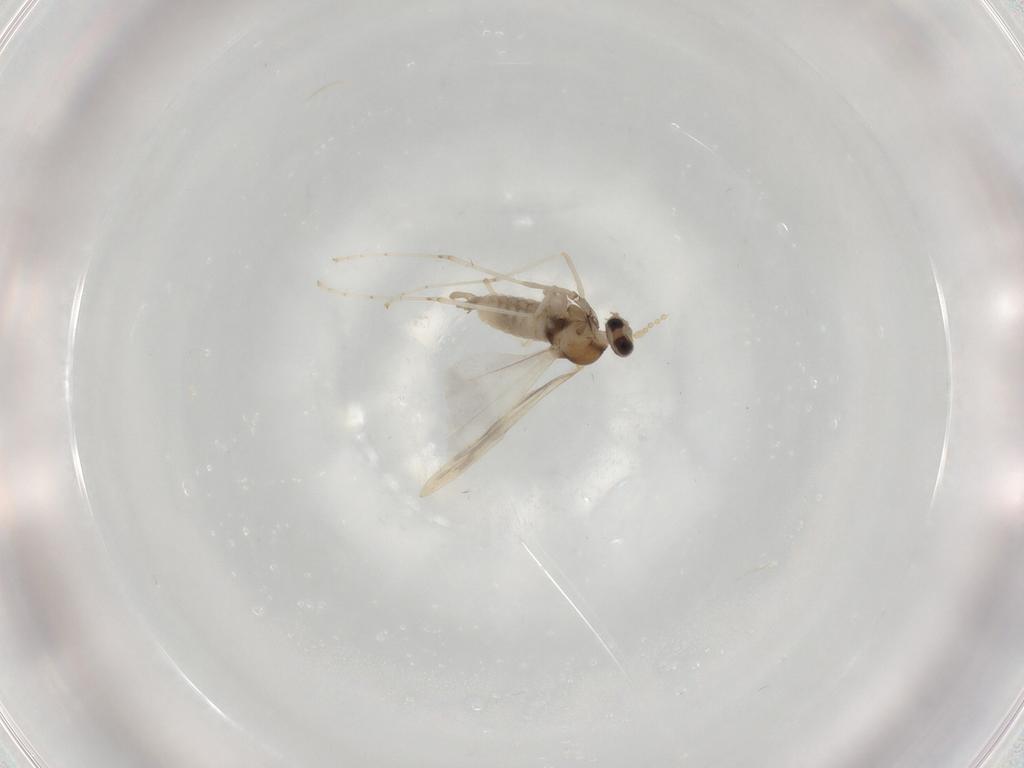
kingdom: Animalia
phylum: Arthropoda
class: Insecta
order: Diptera
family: Cecidomyiidae
